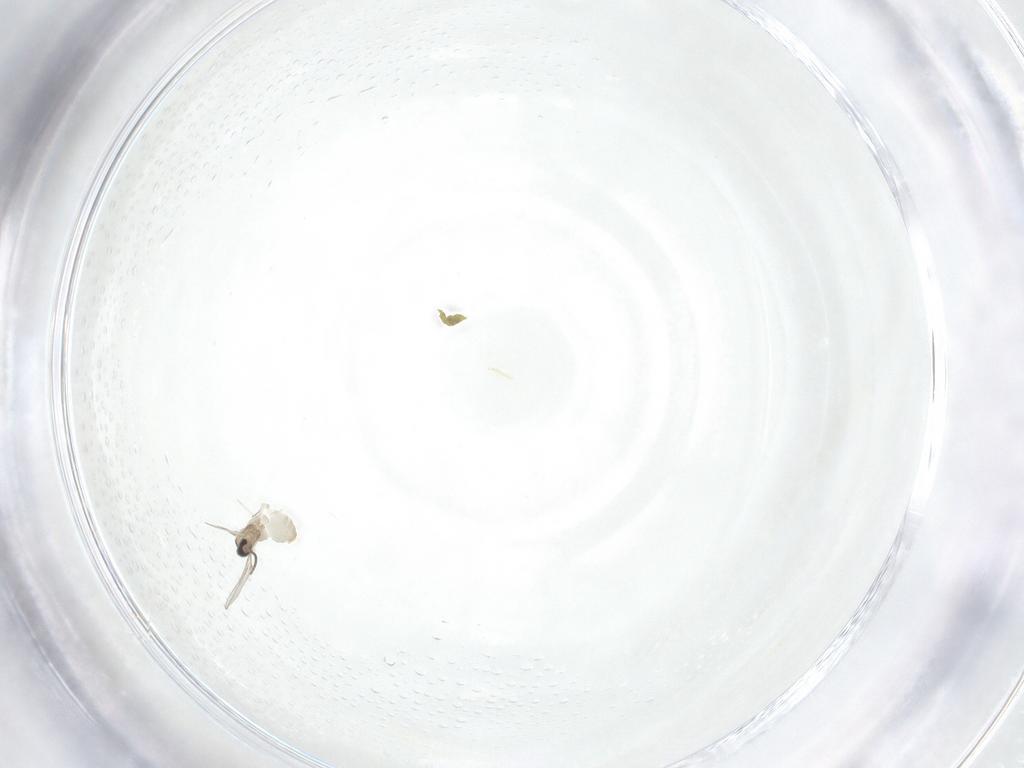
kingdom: Animalia
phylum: Arthropoda
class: Insecta
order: Diptera
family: Cecidomyiidae
